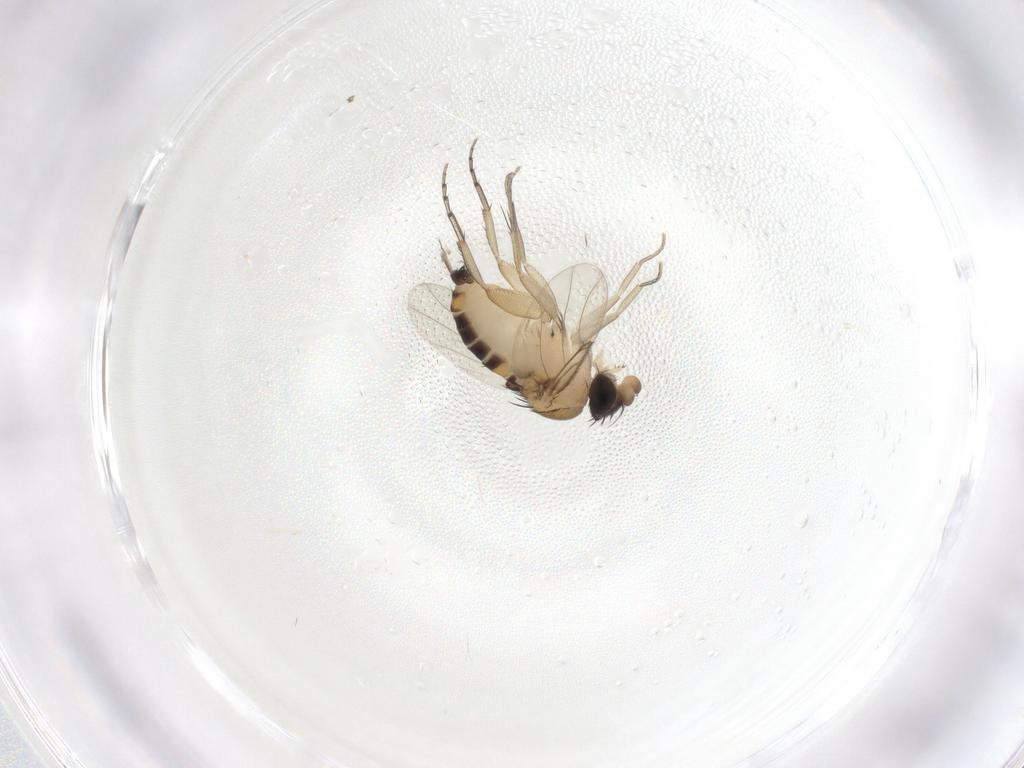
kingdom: Animalia
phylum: Arthropoda
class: Insecta
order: Diptera
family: Phoridae
